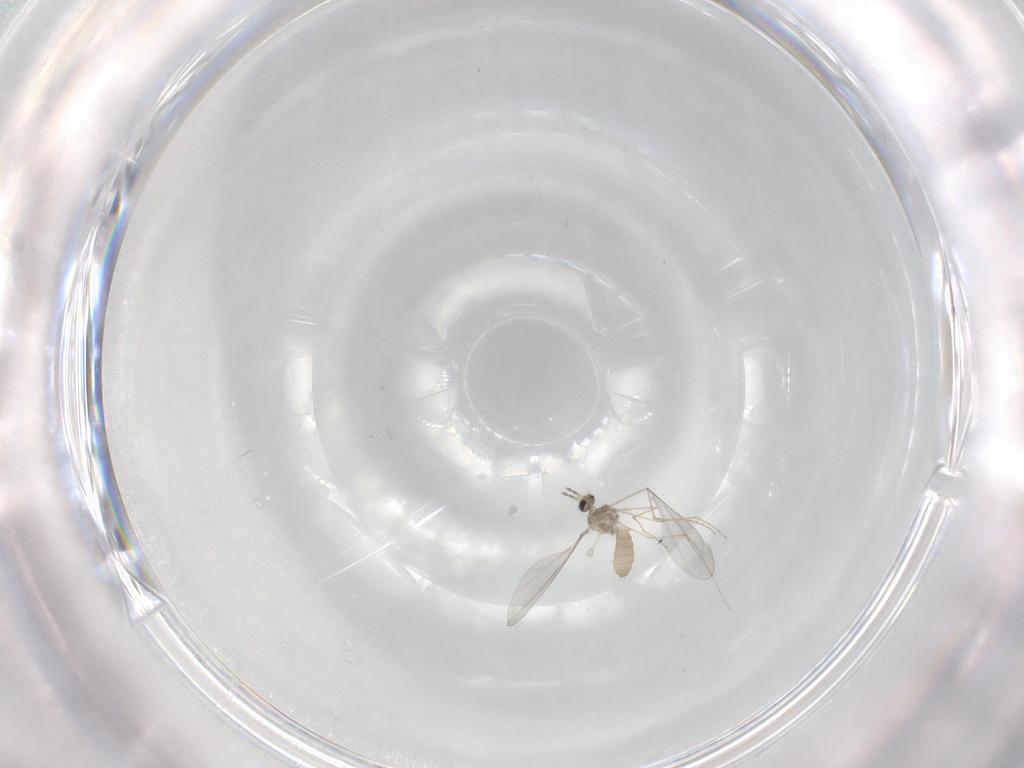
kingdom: Animalia
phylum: Arthropoda
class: Insecta
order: Diptera
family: Cecidomyiidae
